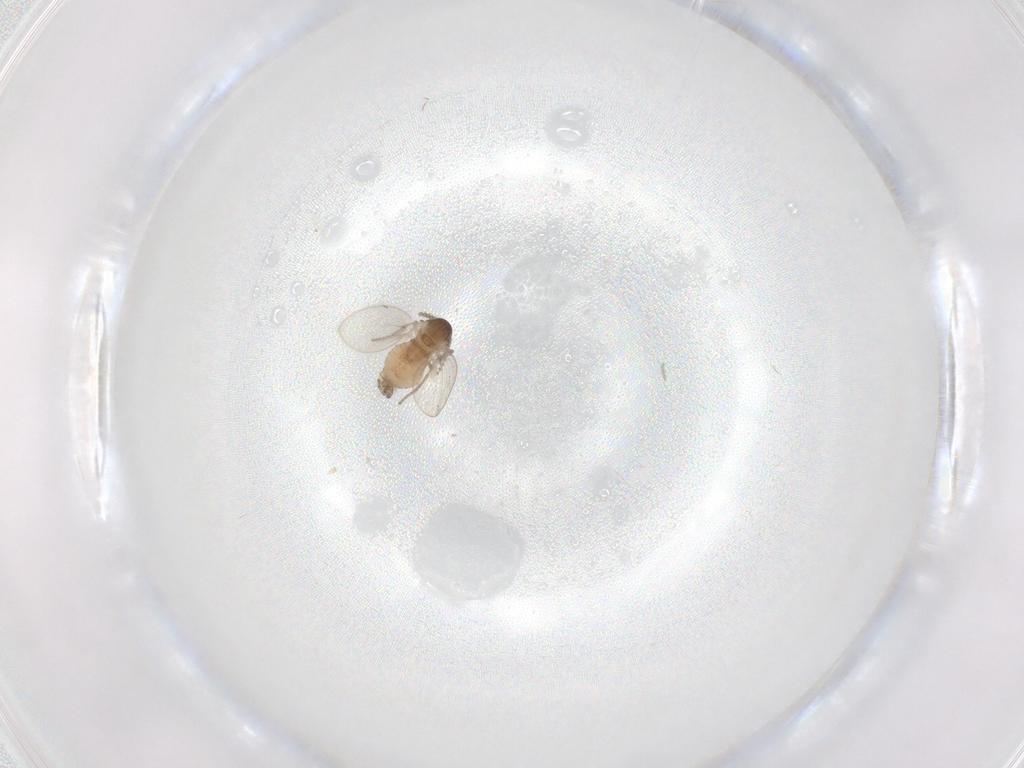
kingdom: Animalia
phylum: Arthropoda
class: Insecta
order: Diptera
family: Psychodidae
